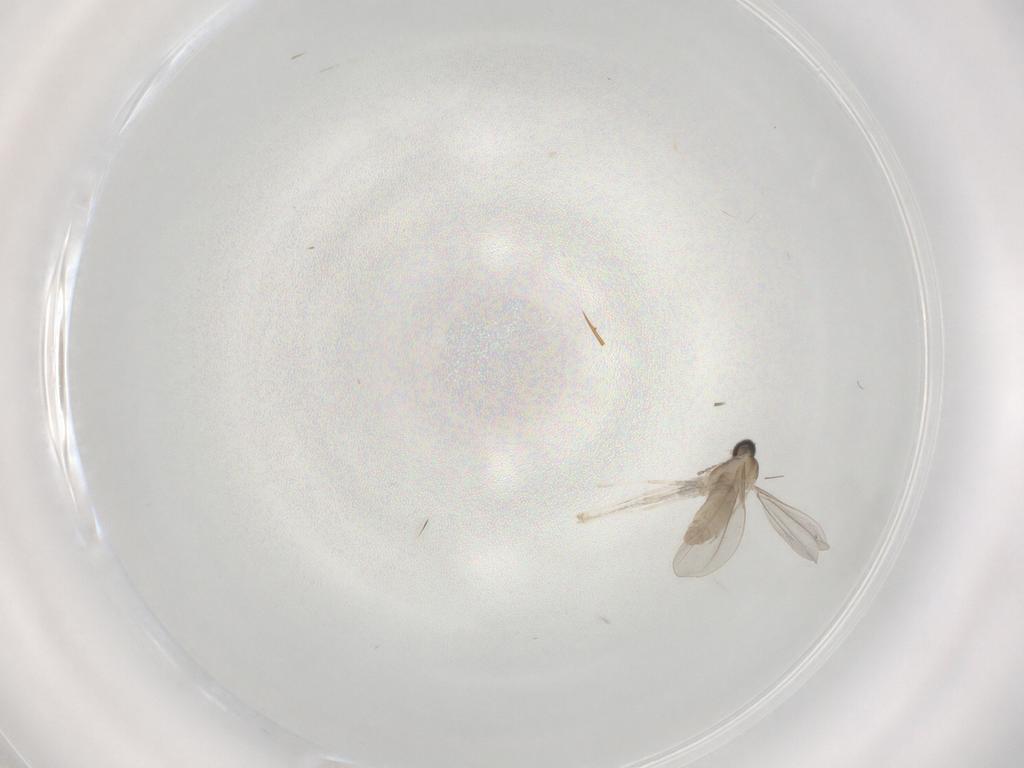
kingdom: Animalia
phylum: Arthropoda
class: Insecta
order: Diptera
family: Cecidomyiidae
